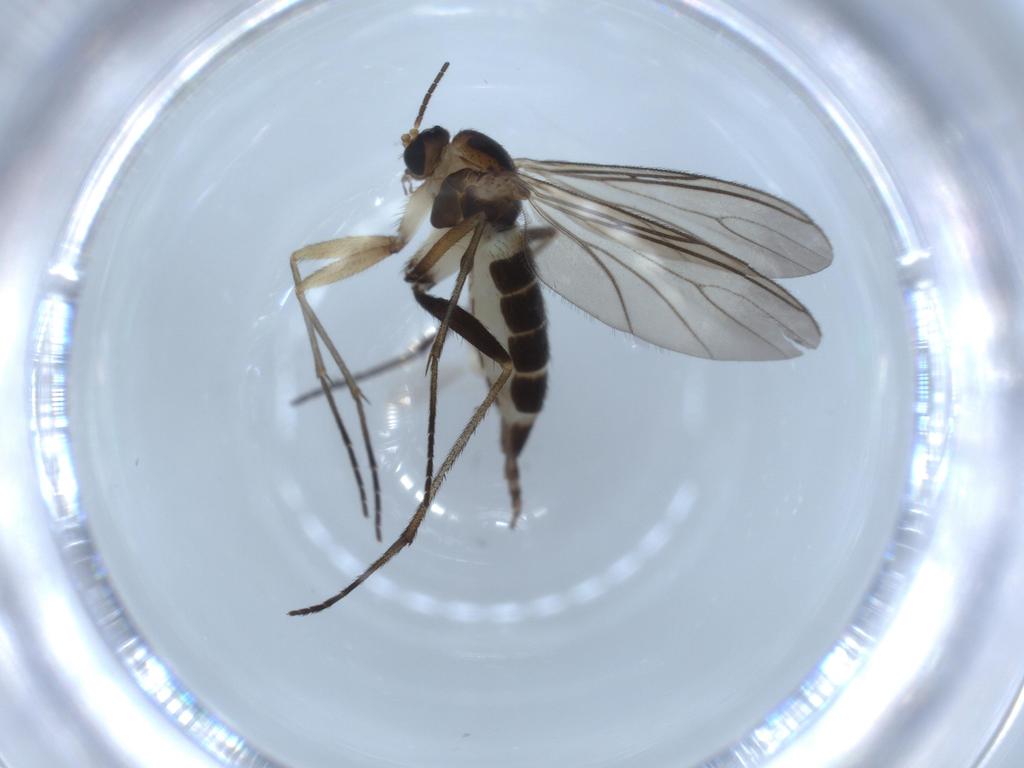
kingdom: Animalia
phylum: Arthropoda
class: Insecta
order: Diptera
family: Sciaridae
